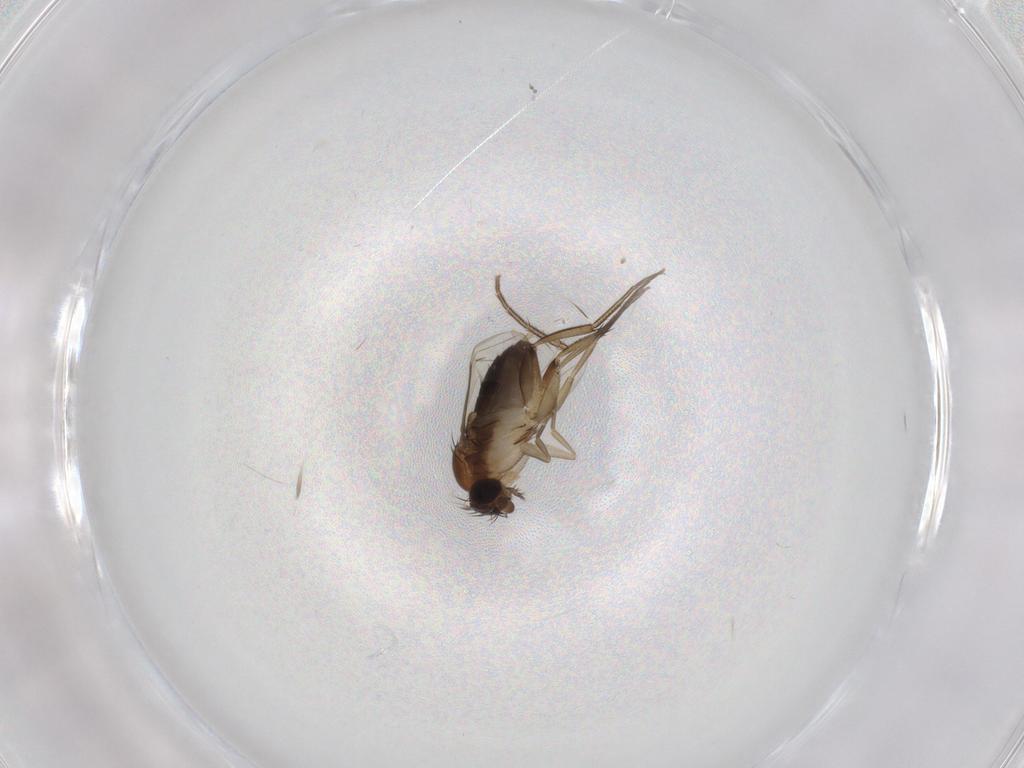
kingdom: Animalia
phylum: Arthropoda
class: Insecta
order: Diptera
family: Phoridae
